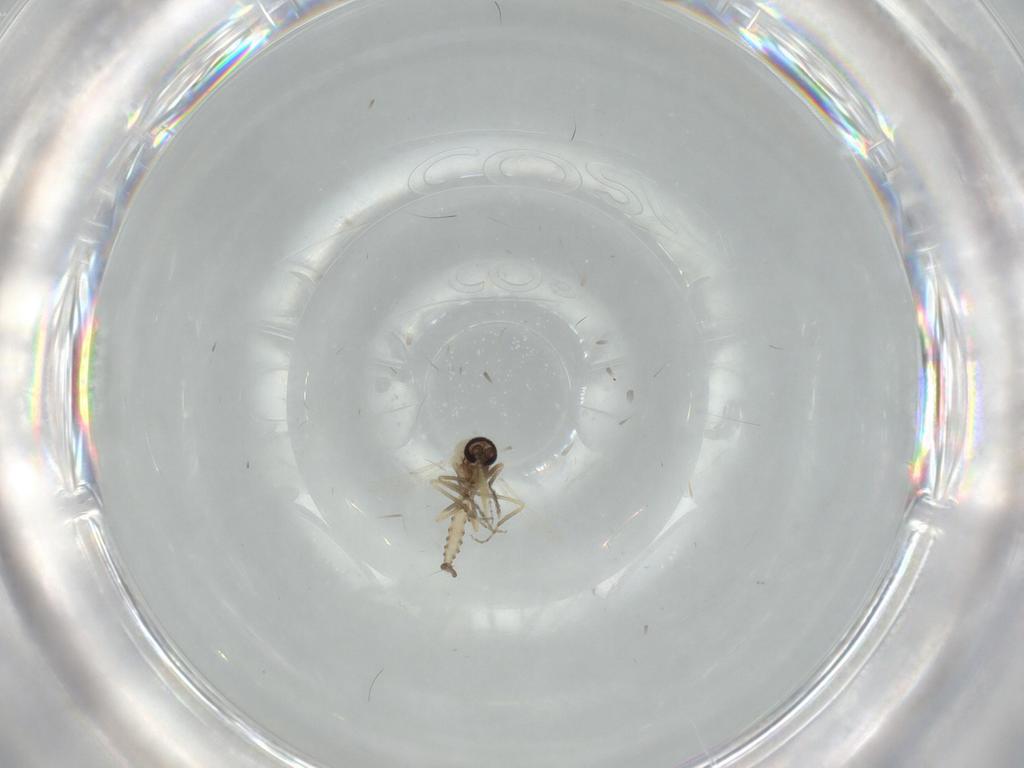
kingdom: Animalia
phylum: Arthropoda
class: Insecta
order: Diptera
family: Cecidomyiidae
